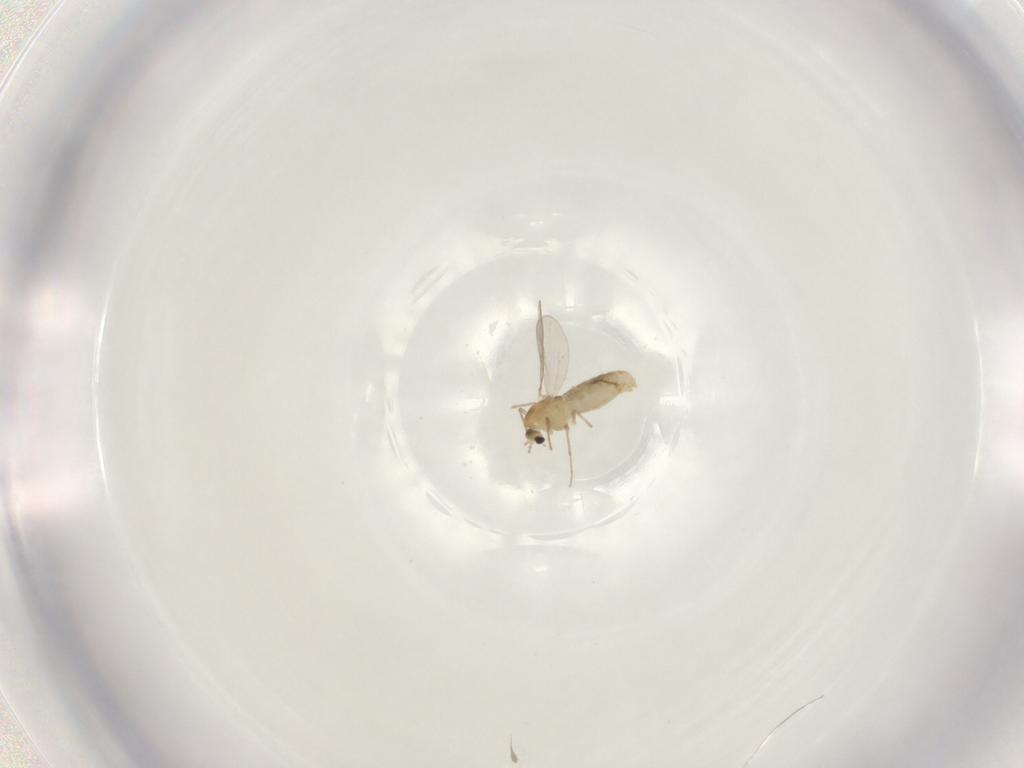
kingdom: Animalia
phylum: Arthropoda
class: Insecta
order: Diptera
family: Chironomidae
